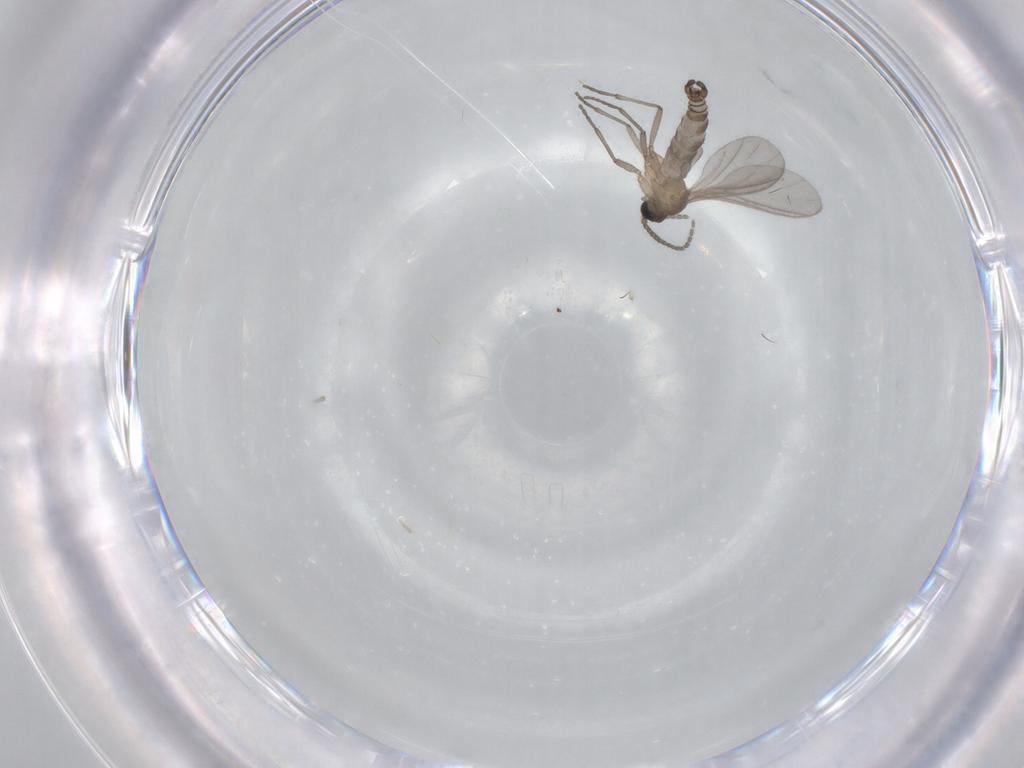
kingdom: Animalia
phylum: Arthropoda
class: Insecta
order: Diptera
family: Sciaridae
